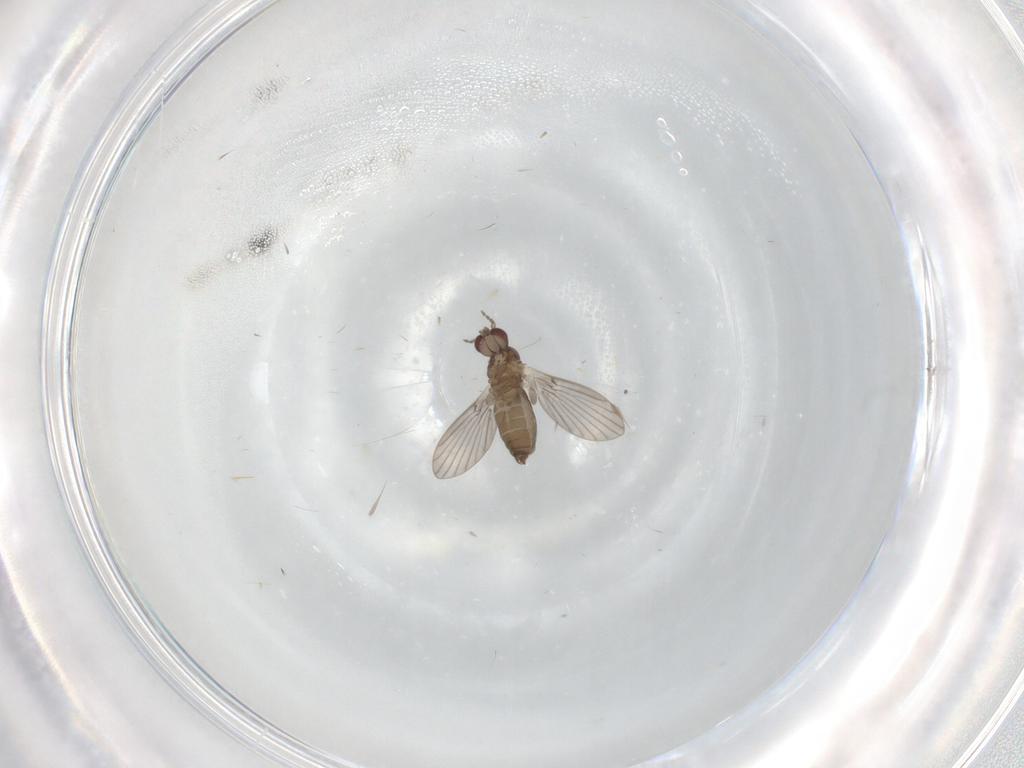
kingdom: Animalia
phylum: Arthropoda
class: Insecta
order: Diptera
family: Cecidomyiidae
